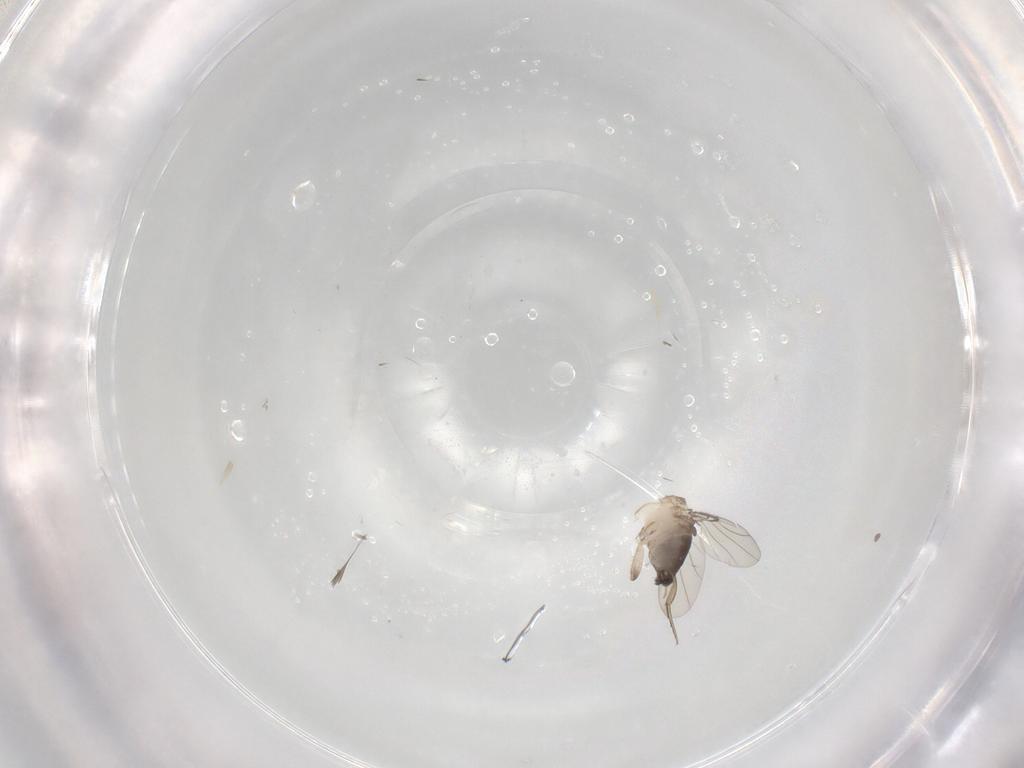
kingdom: Animalia
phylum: Arthropoda
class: Insecta
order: Diptera
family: Phoridae
